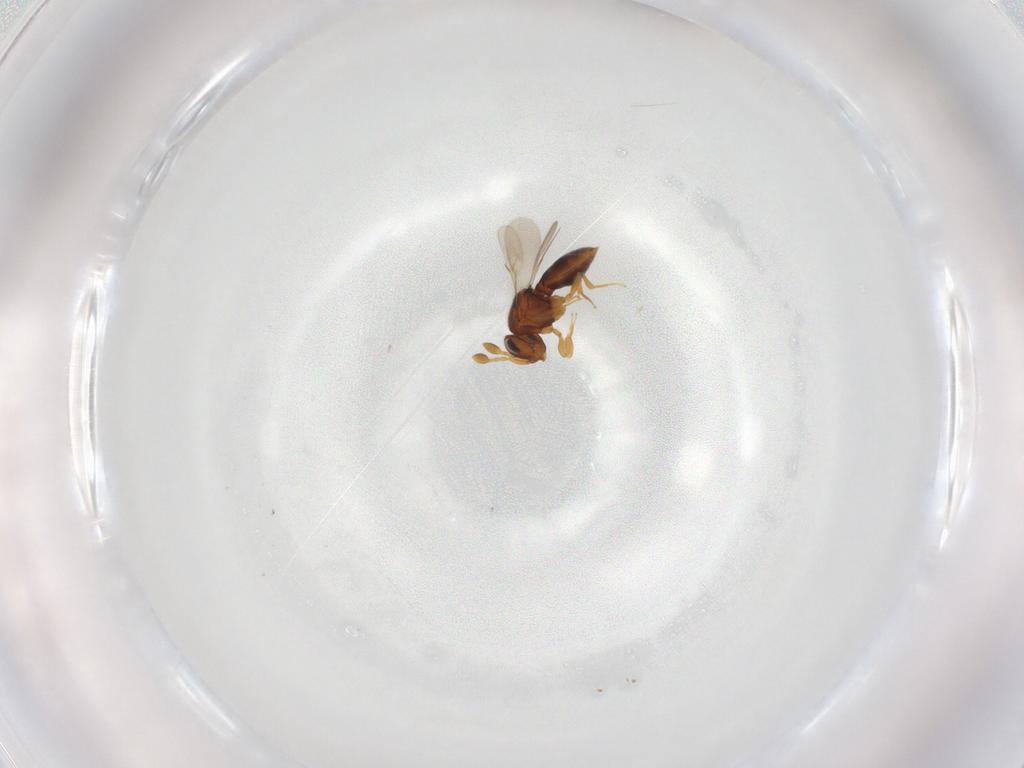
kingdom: Animalia
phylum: Arthropoda
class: Insecta
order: Hymenoptera
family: Scelionidae
